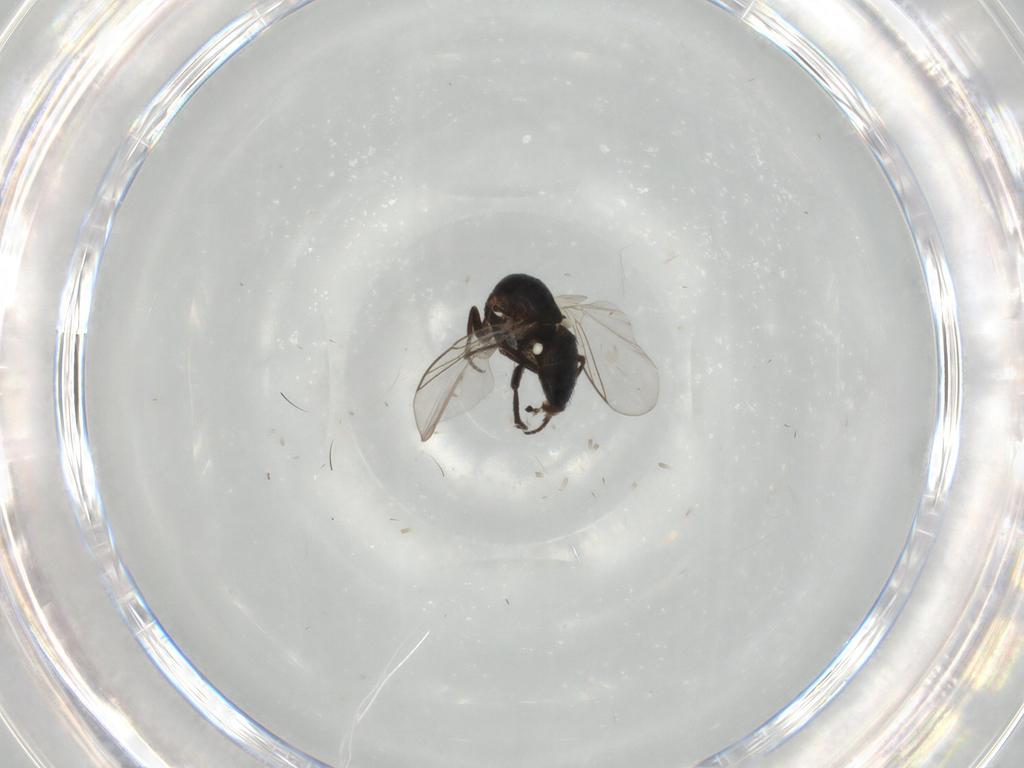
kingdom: Animalia
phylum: Arthropoda
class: Insecta
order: Diptera
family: Agromyzidae
